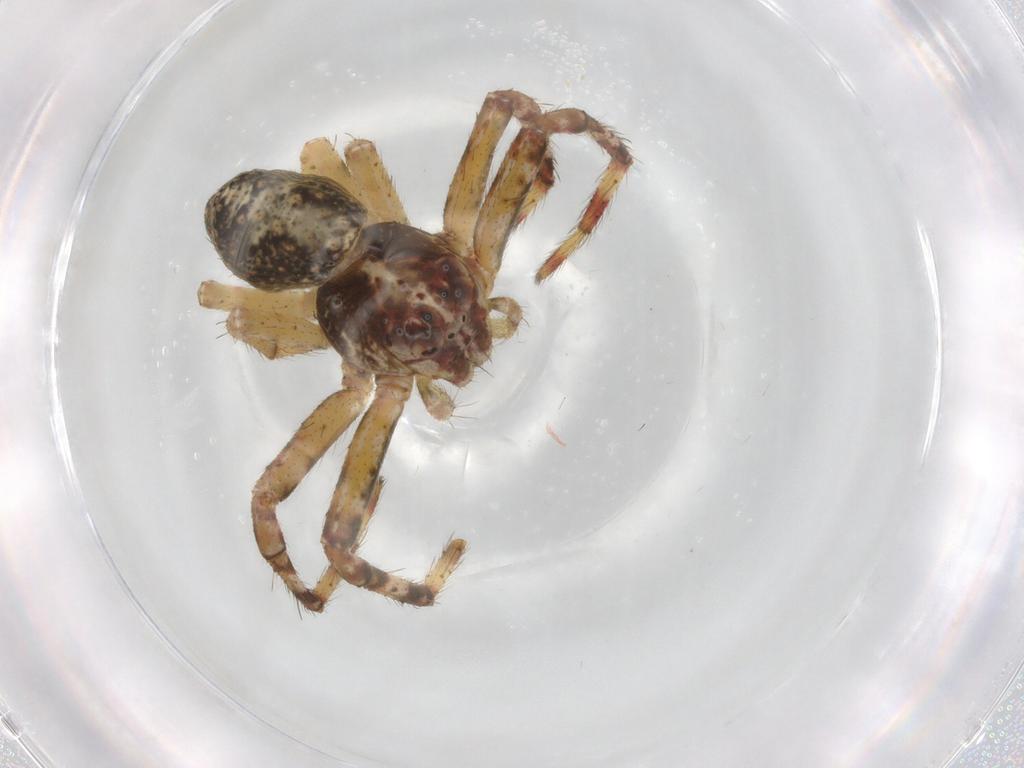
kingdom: Animalia
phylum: Arthropoda
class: Arachnida
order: Araneae
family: Thomisidae
